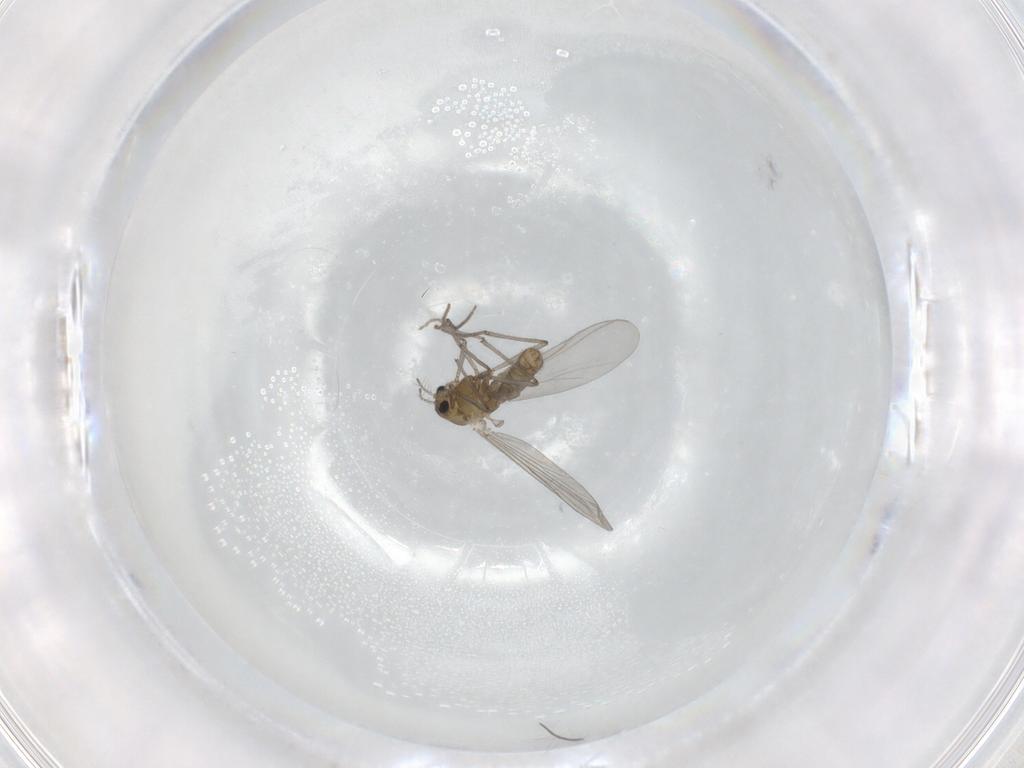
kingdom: Animalia
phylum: Arthropoda
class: Insecta
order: Diptera
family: Chironomidae
